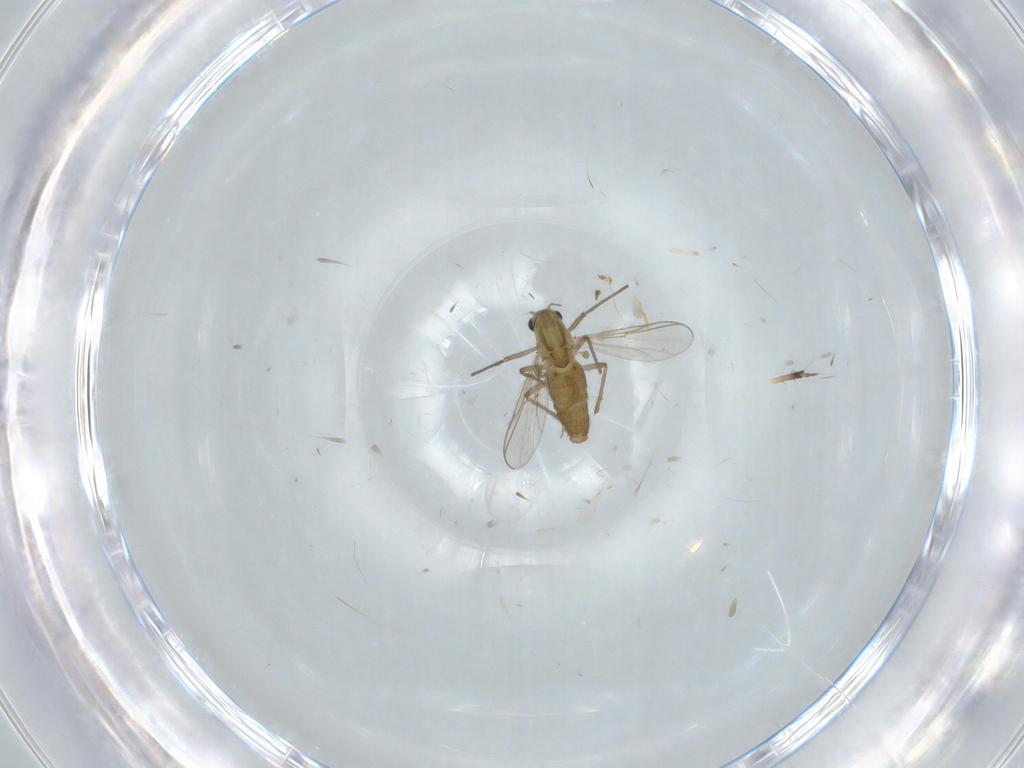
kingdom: Animalia
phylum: Arthropoda
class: Insecta
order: Diptera
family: Chironomidae
